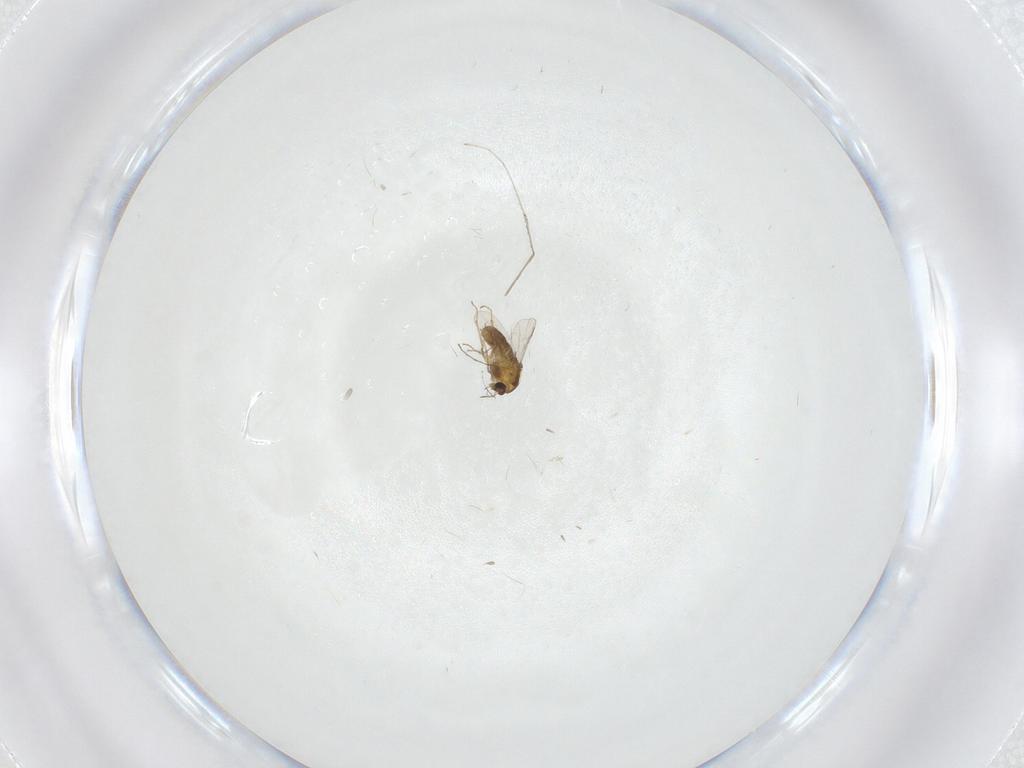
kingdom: Animalia
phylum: Arthropoda
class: Insecta
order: Diptera
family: Chironomidae
